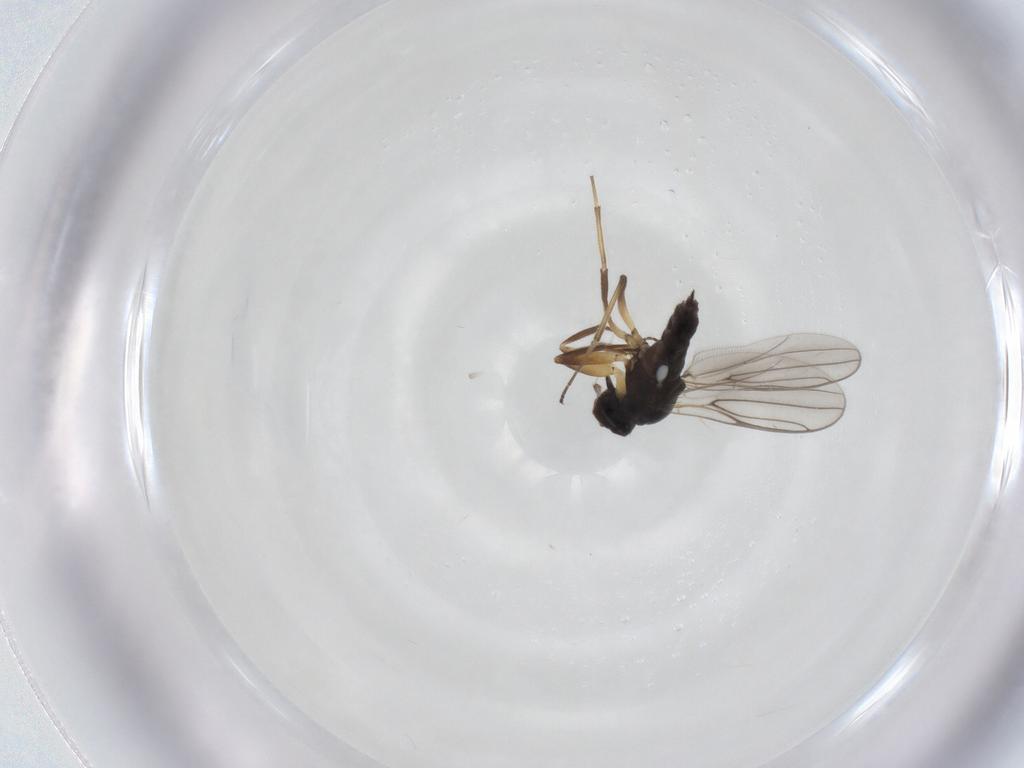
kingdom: Animalia
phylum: Arthropoda
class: Insecta
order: Diptera
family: Hybotidae
